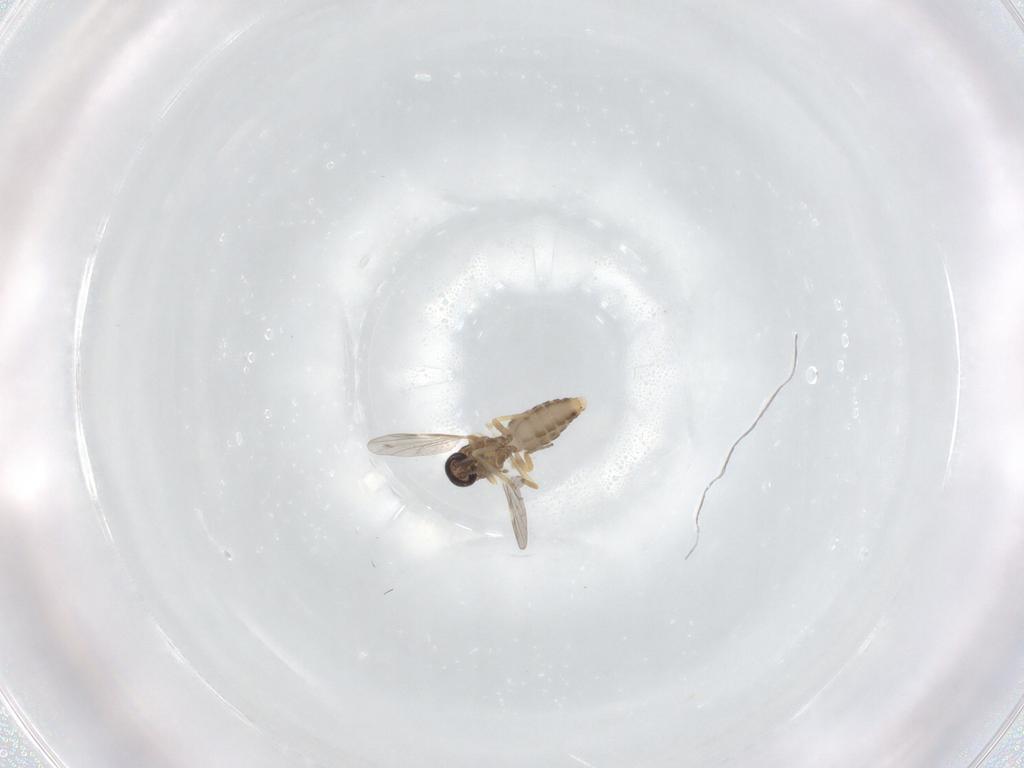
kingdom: Animalia
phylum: Arthropoda
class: Insecta
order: Diptera
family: Ceratopogonidae
